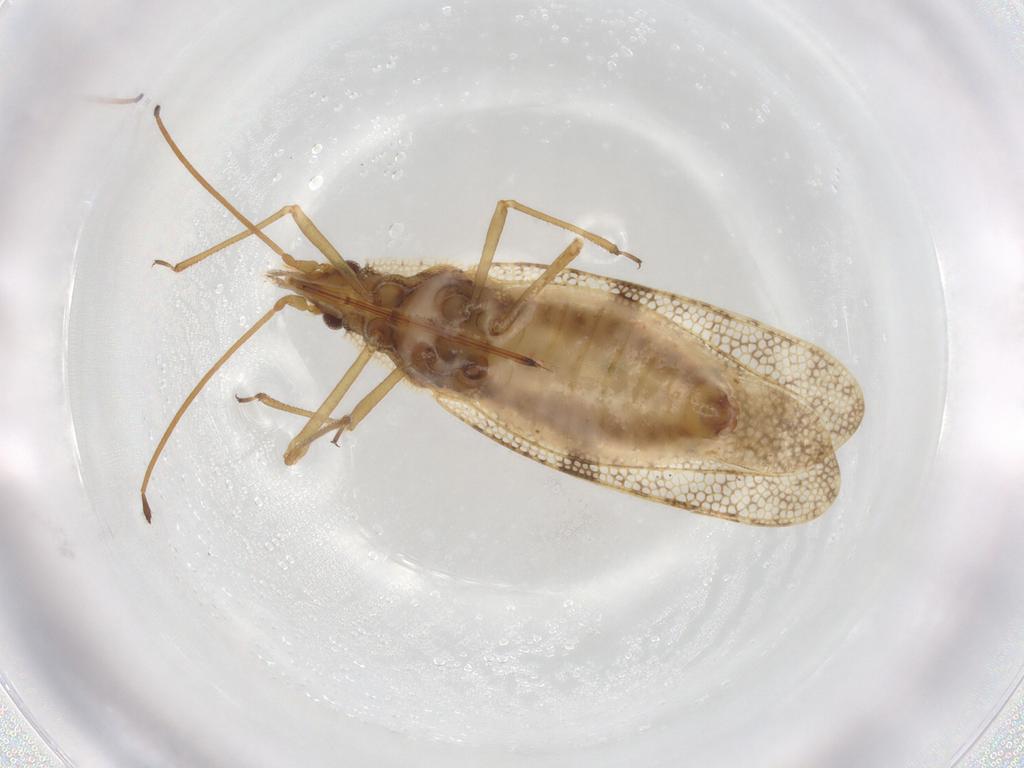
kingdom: Animalia
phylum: Arthropoda
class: Insecta
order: Hemiptera
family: Tingidae
